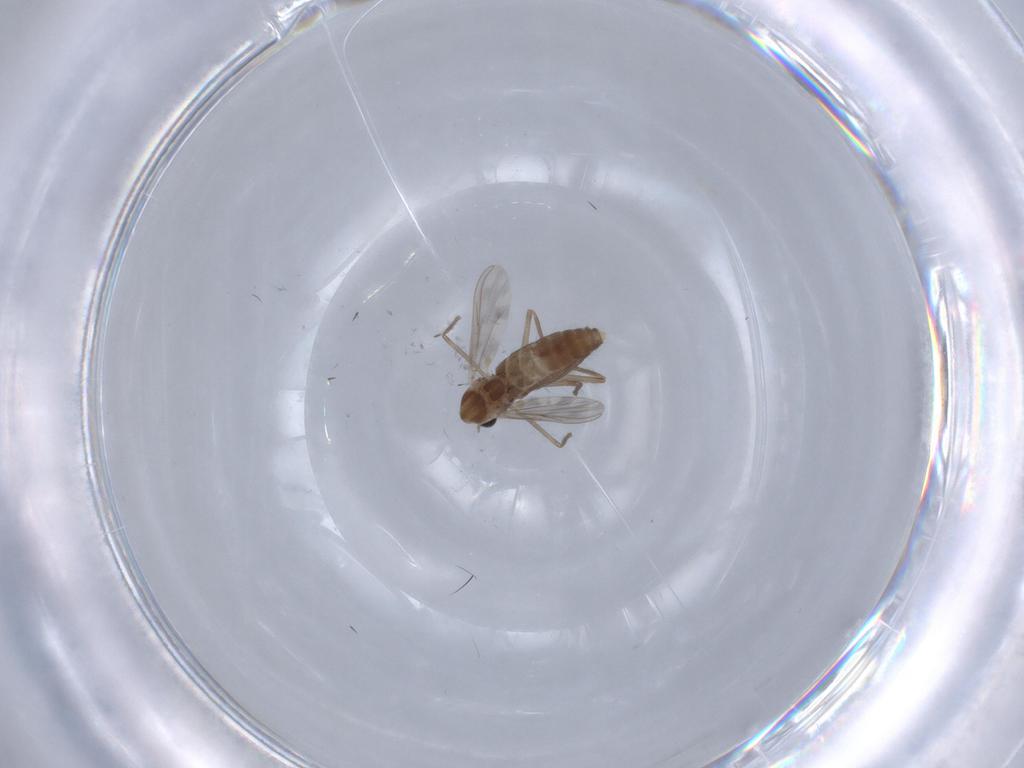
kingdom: Animalia
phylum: Arthropoda
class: Insecta
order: Diptera
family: Chironomidae
